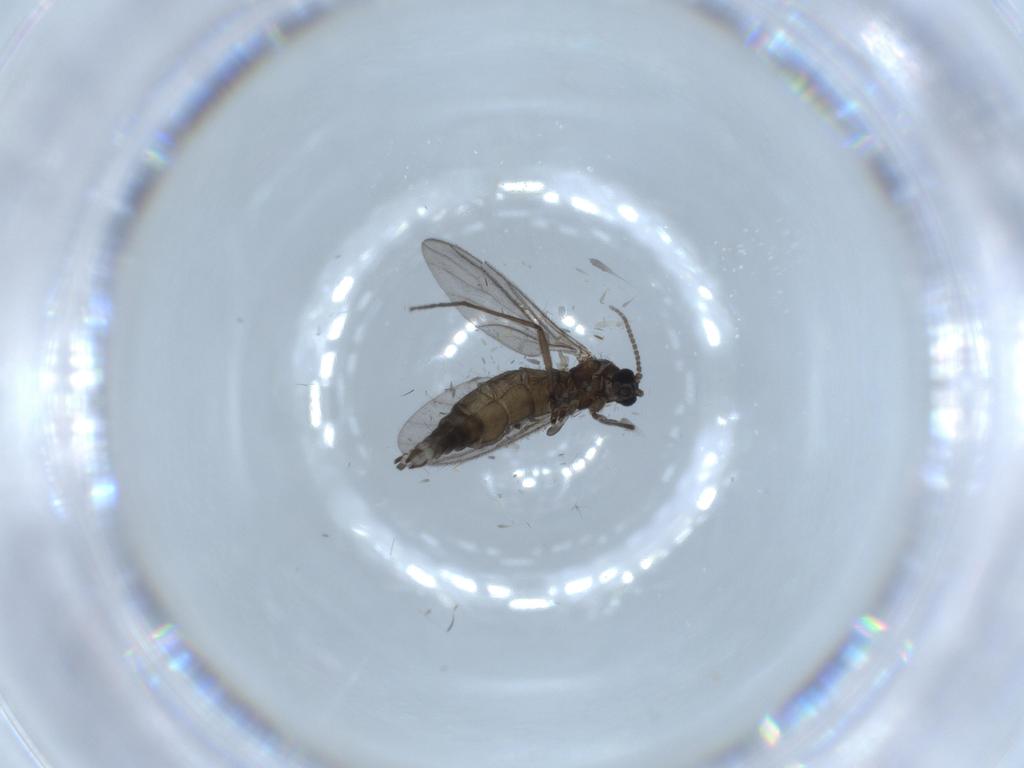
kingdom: Animalia
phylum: Arthropoda
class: Insecta
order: Diptera
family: Sciaridae
